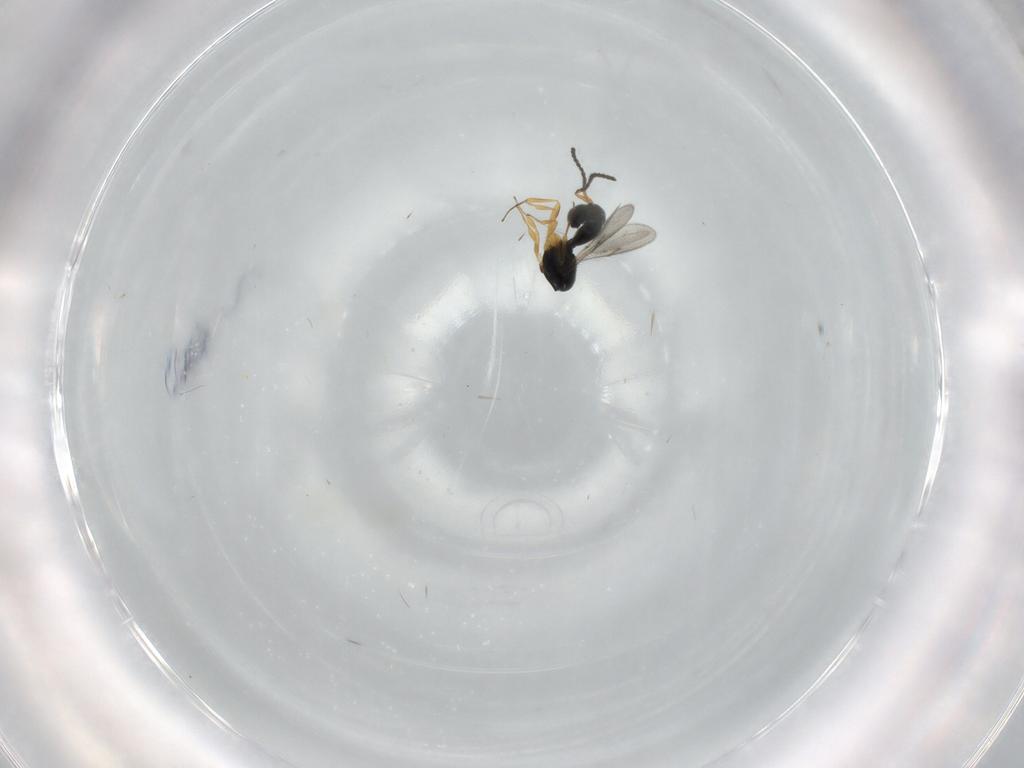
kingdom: Animalia
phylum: Arthropoda
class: Insecta
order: Hymenoptera
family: Scelionidae
